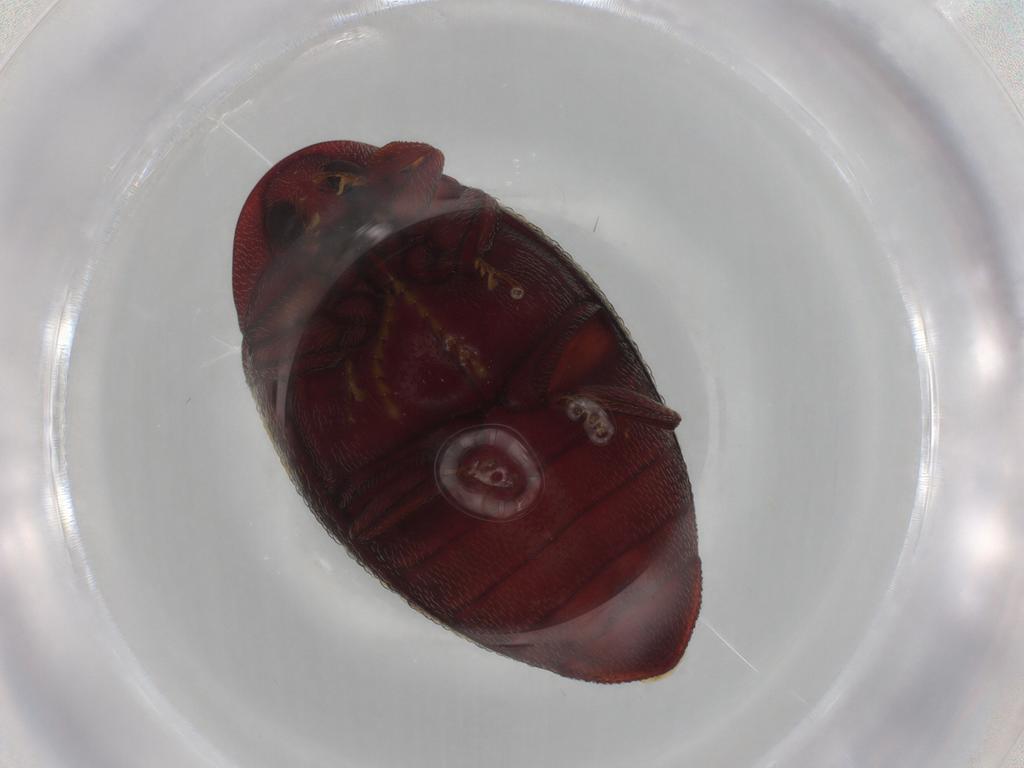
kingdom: Animalia
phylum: Arthropoda
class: Insecta
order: Coleoptera
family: Chelonariidae
